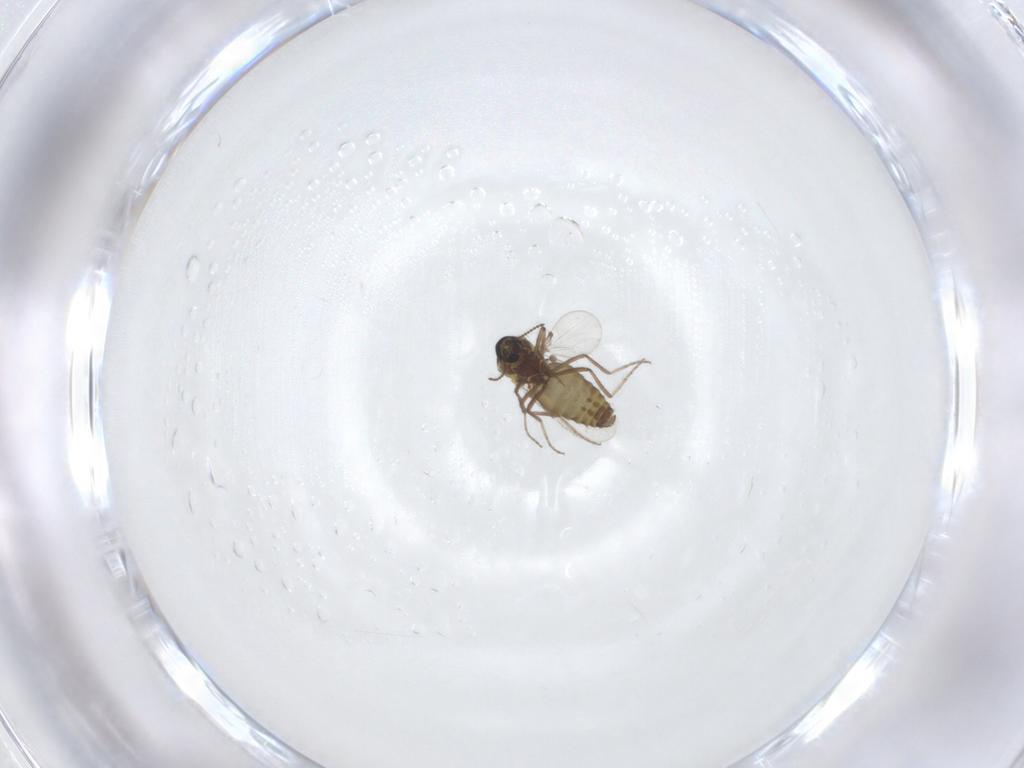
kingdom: Animalia
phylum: Arthropoda
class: Insecta
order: Diptera
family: Ceratopogonidae
